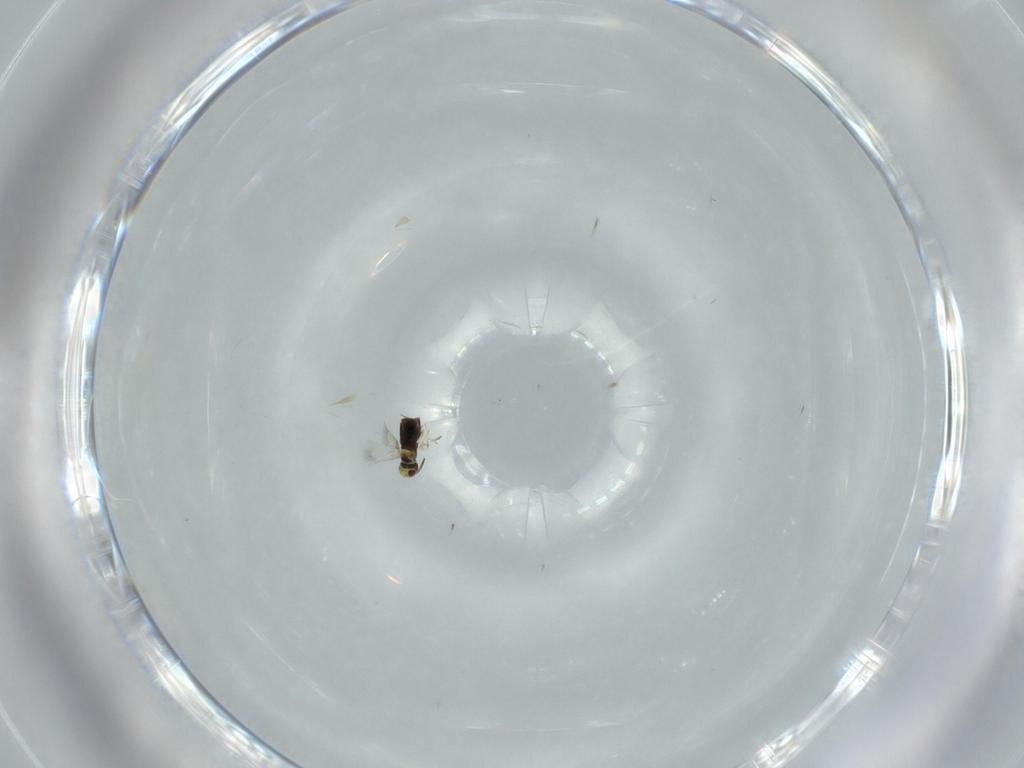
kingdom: Animalia
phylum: Arthropoda
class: Insecta
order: Hymenoptera
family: Signiphoridae
